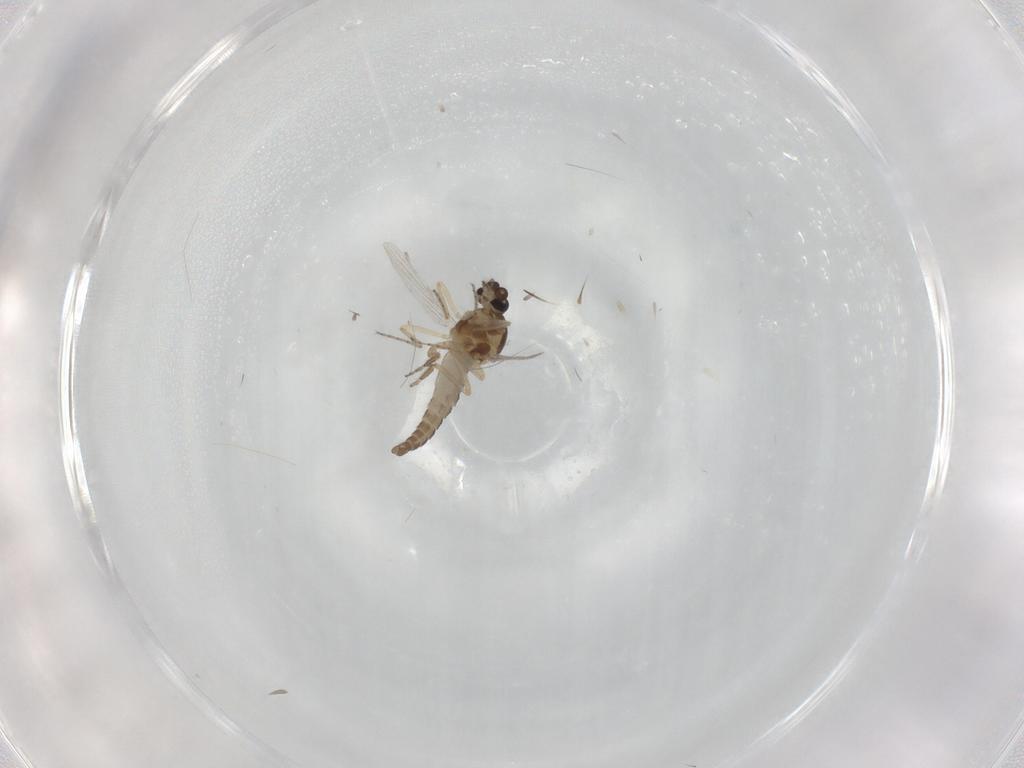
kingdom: Animalia
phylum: Arthropoda
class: Insecta
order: Diptera
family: Ceratopogonidae
